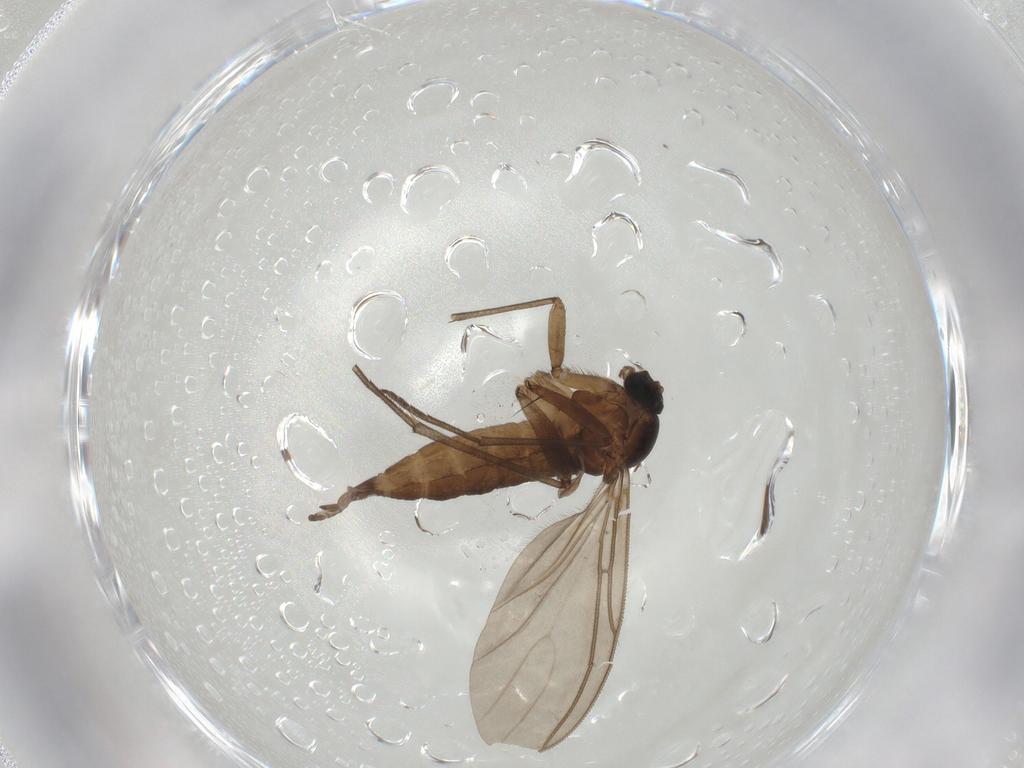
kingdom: Animalia
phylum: Arthropoda
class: Insecta
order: Diptera
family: Sciaridae
